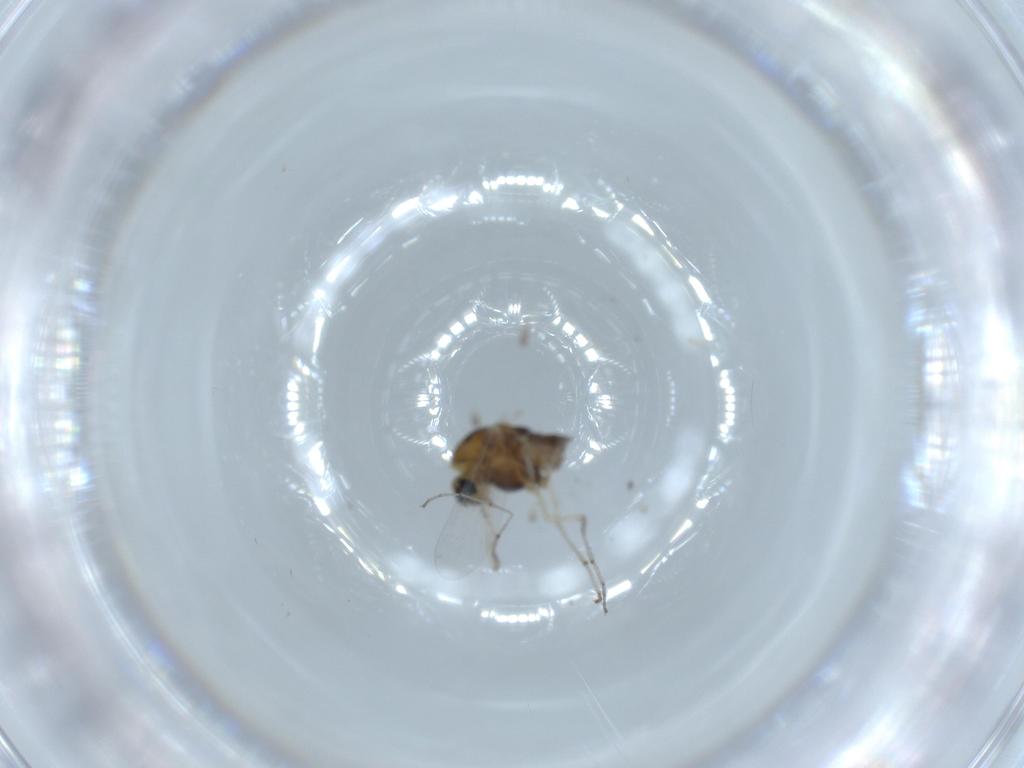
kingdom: Animalia
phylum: Arthropoda
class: Insecta
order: Diptera
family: Chironomidae
